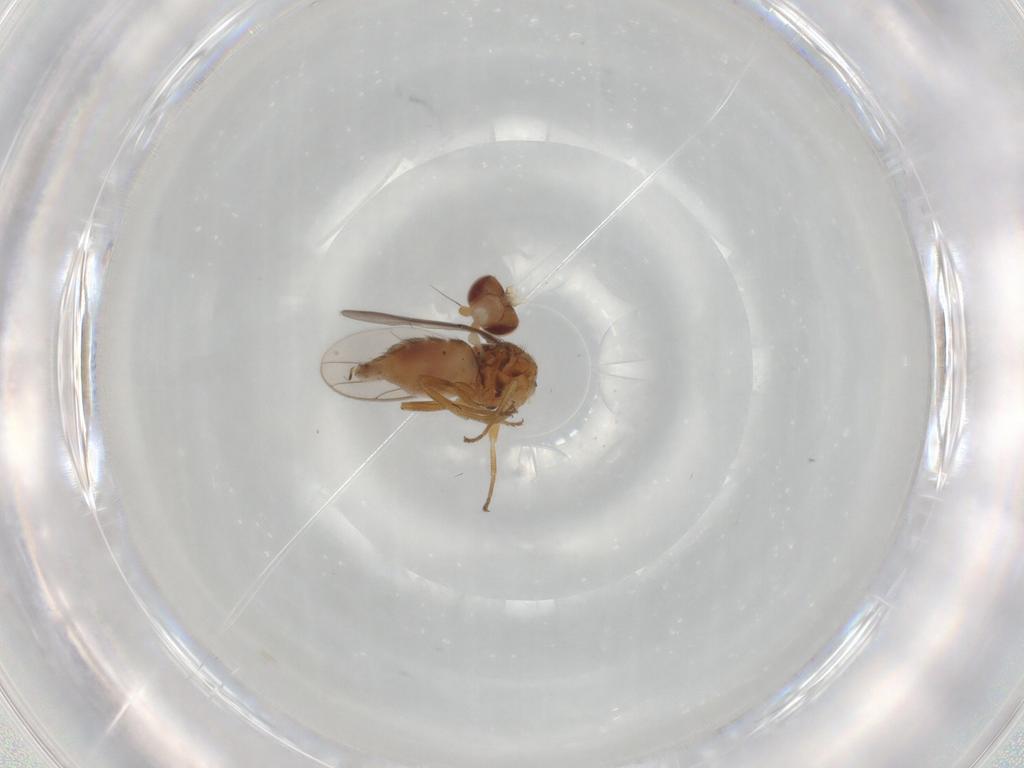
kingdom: Animalia
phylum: Arthropoda
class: Insecta
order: Diptera
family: Chloropidae
